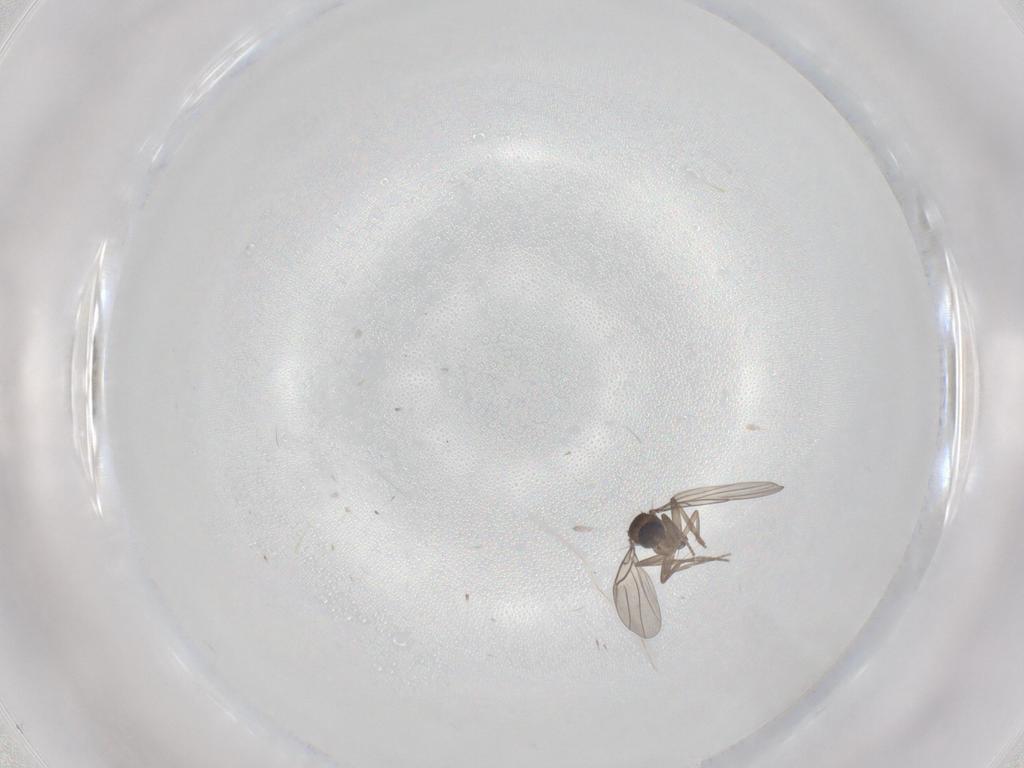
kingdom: Animalia
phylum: Arthropoda
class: Insecta
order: Diptera
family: Phoridae
